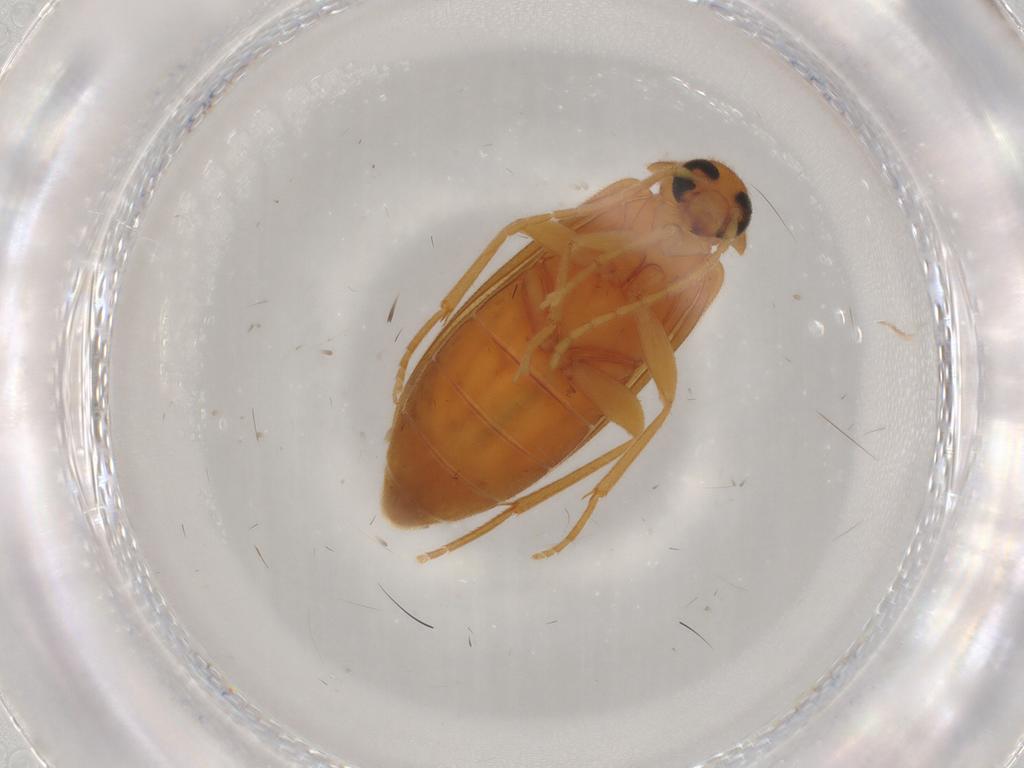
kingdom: Animalia
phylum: Arthropoda
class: Insecta
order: Coleoptera
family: Scraptiidae
